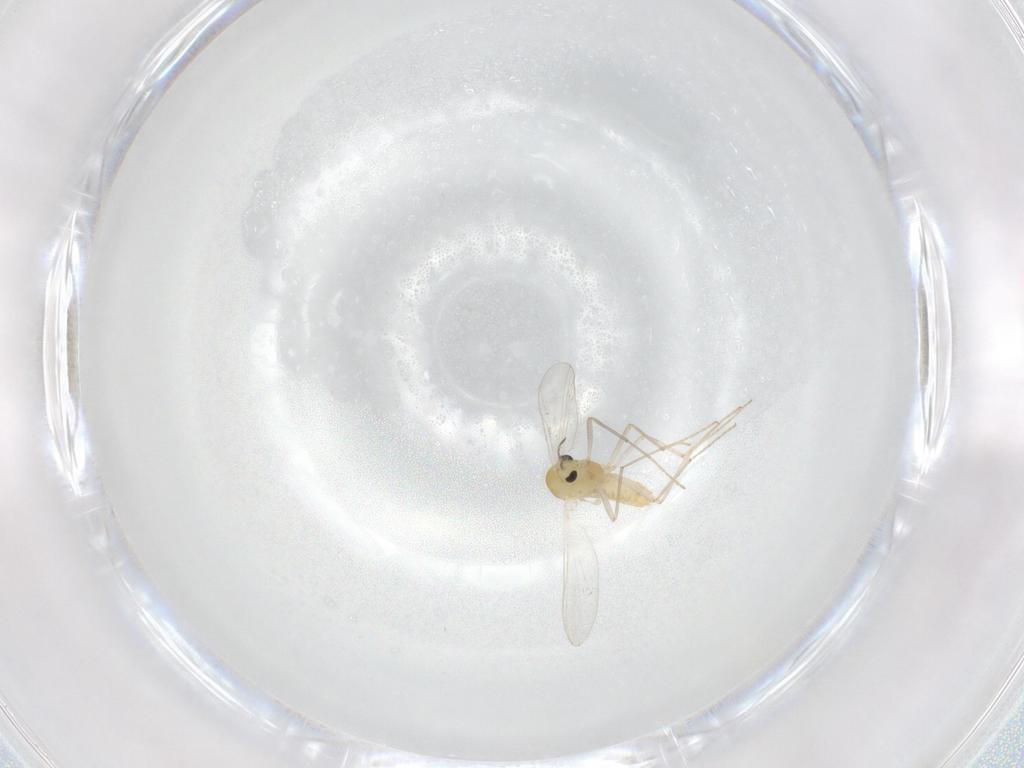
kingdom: Animalia
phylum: Arthropoda
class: Insecta
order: Diptera
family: Chironomidae
